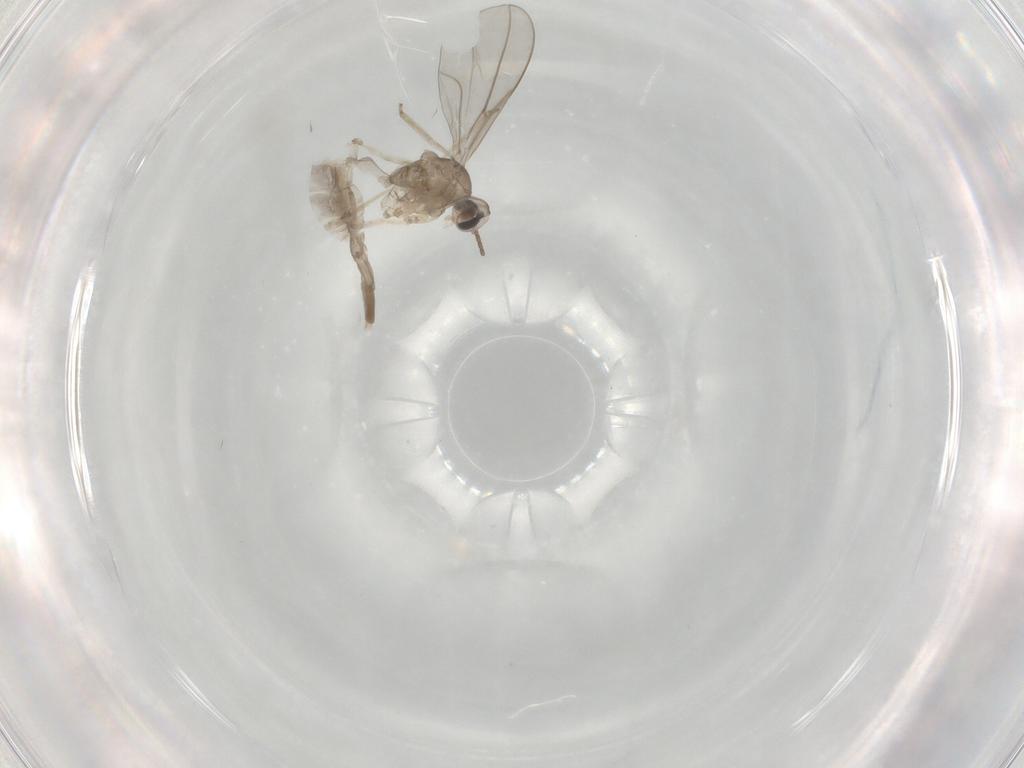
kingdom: Animalia
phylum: Arthropoda
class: Insecta
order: Diptera
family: Cecidomyiidae
